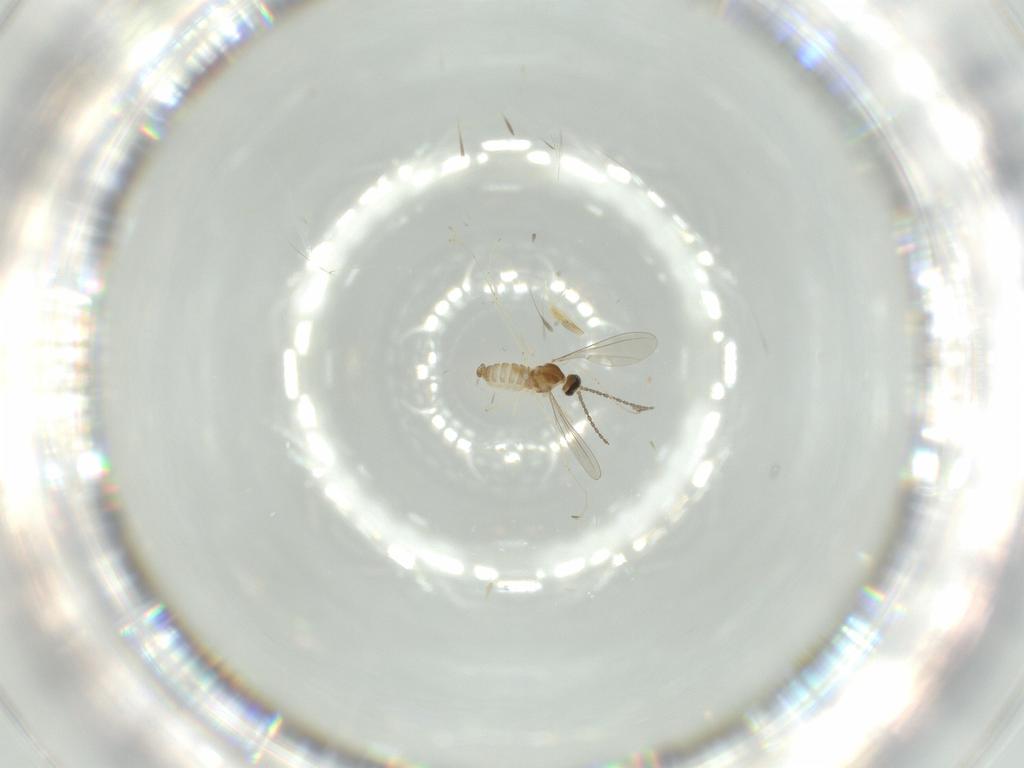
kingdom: Animalia
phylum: Arthropoda
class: Insecta
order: Diptera
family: Cecidomyiidae
